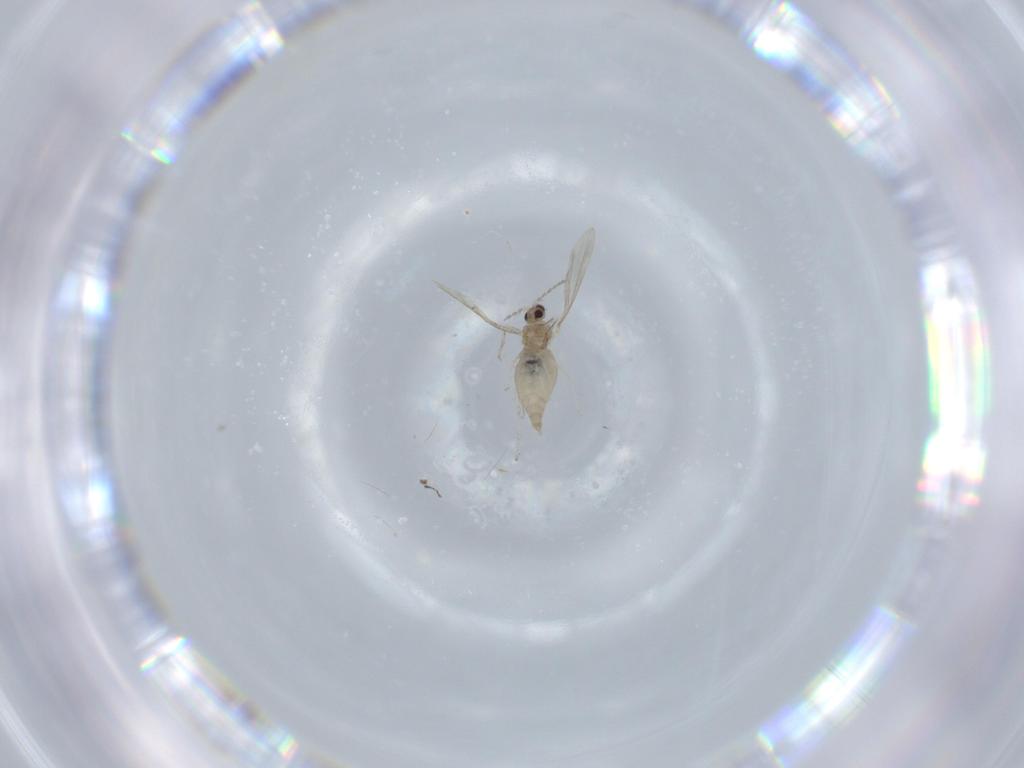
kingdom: Animalia
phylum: Arthropoda
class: Insecta
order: Diptera
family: Cecidomyiidae
